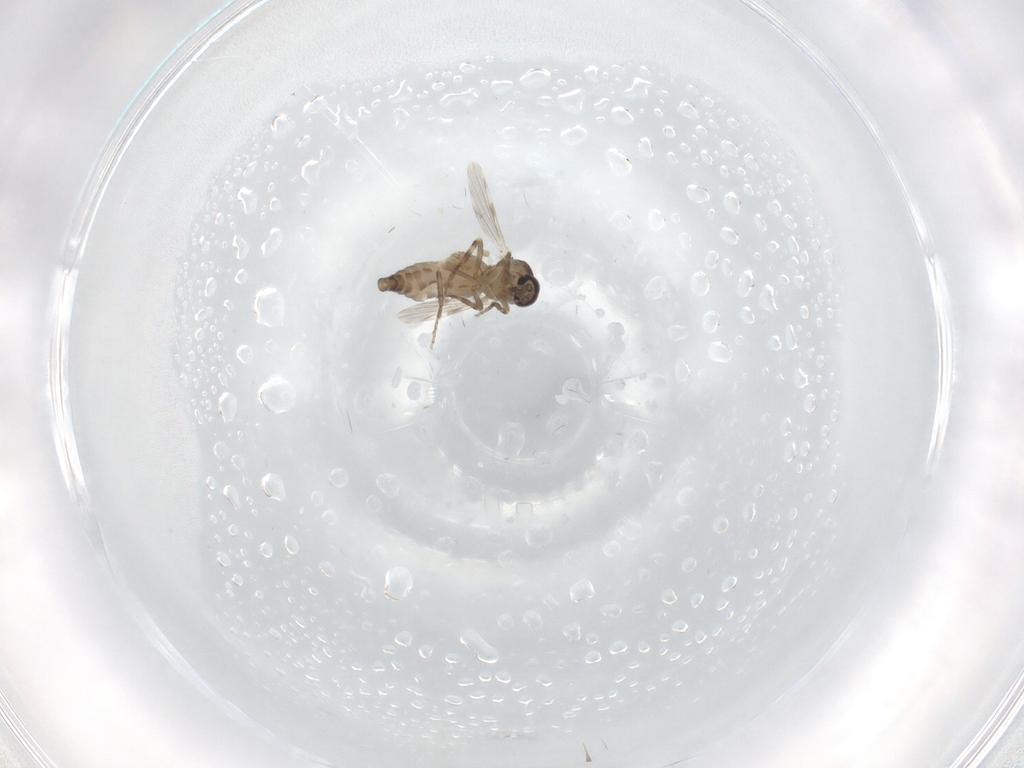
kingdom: Animalia
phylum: Arthropoda
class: Insecta
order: Diptera
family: Ceratopogonidae
